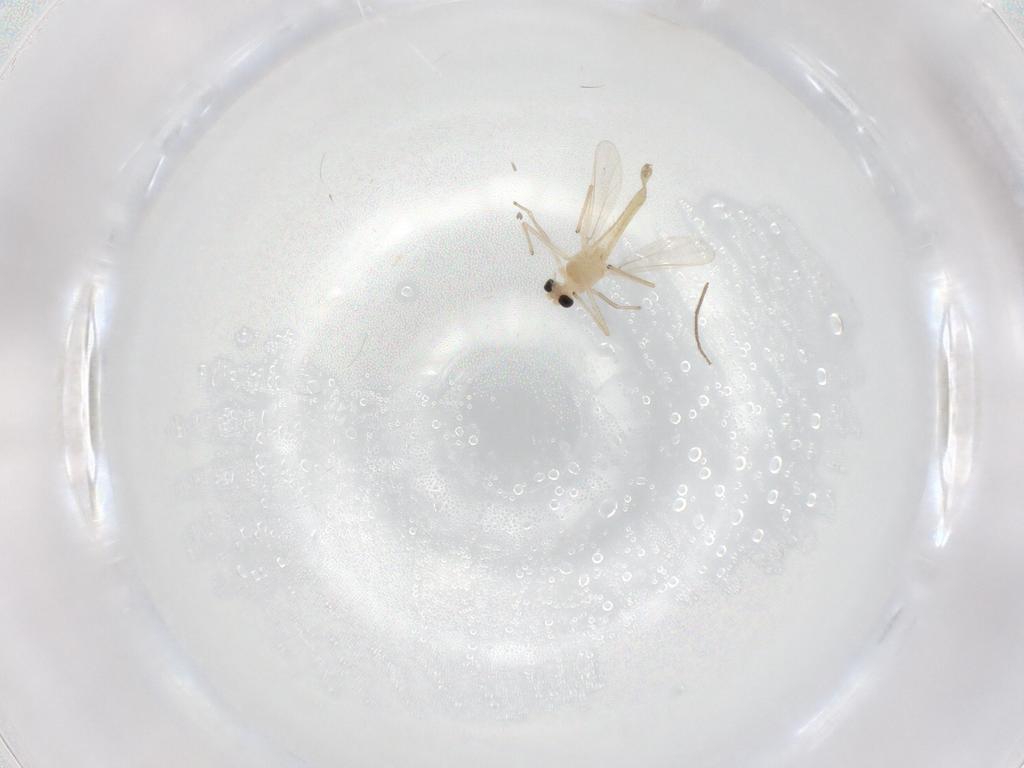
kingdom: Animalia
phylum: Arthropoda
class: Insecta
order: Diptera
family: Chironomidae
